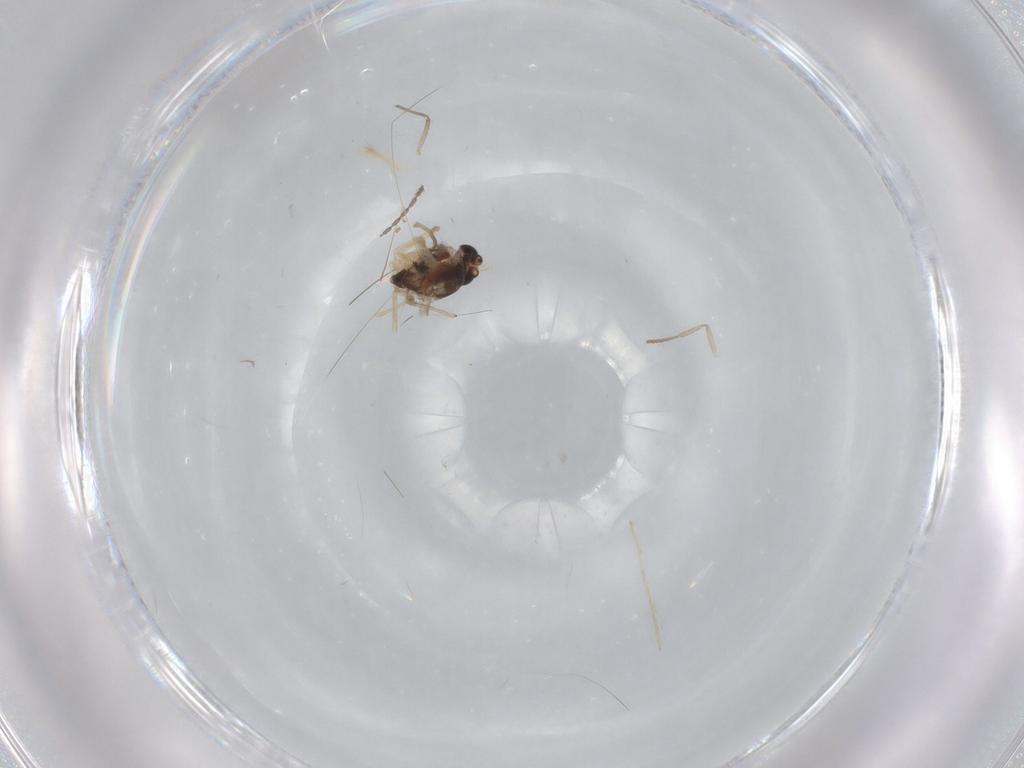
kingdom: Animalia
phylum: Arthropoda
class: Insecta
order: Diptera
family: Chironomidae
